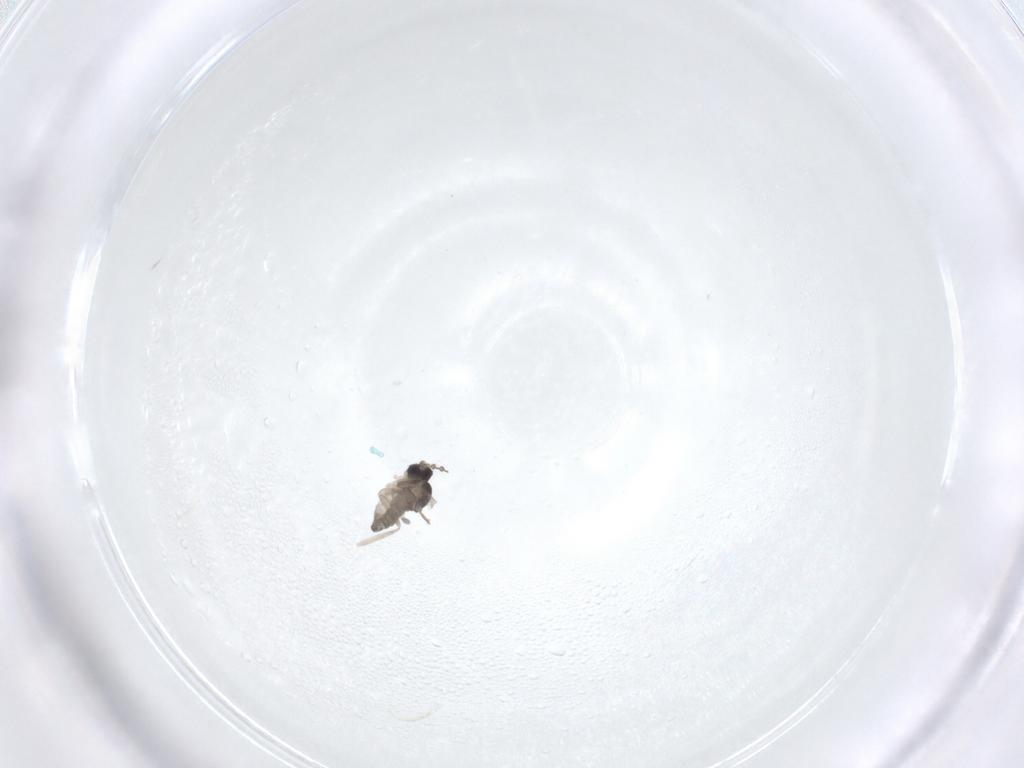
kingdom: Animalia
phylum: Arthropoda
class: Insecta
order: Diptera
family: Cecidomyiidae
